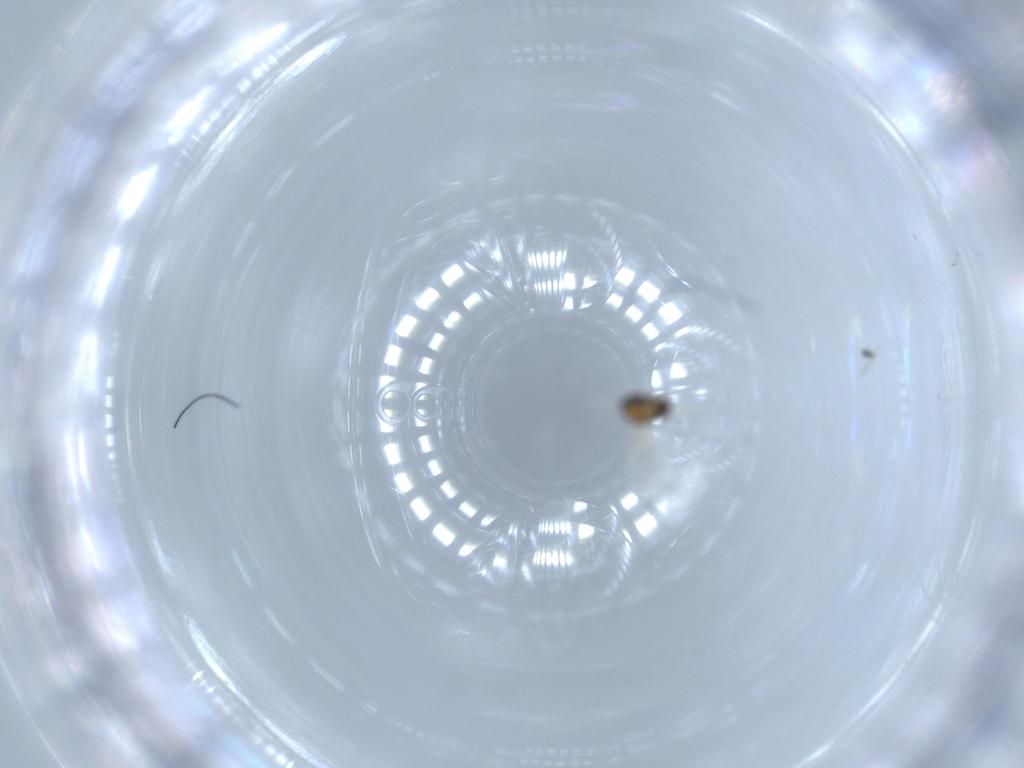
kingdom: Animalia
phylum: Arthropoda
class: Insecta
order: Diptera
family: Chironomidae
